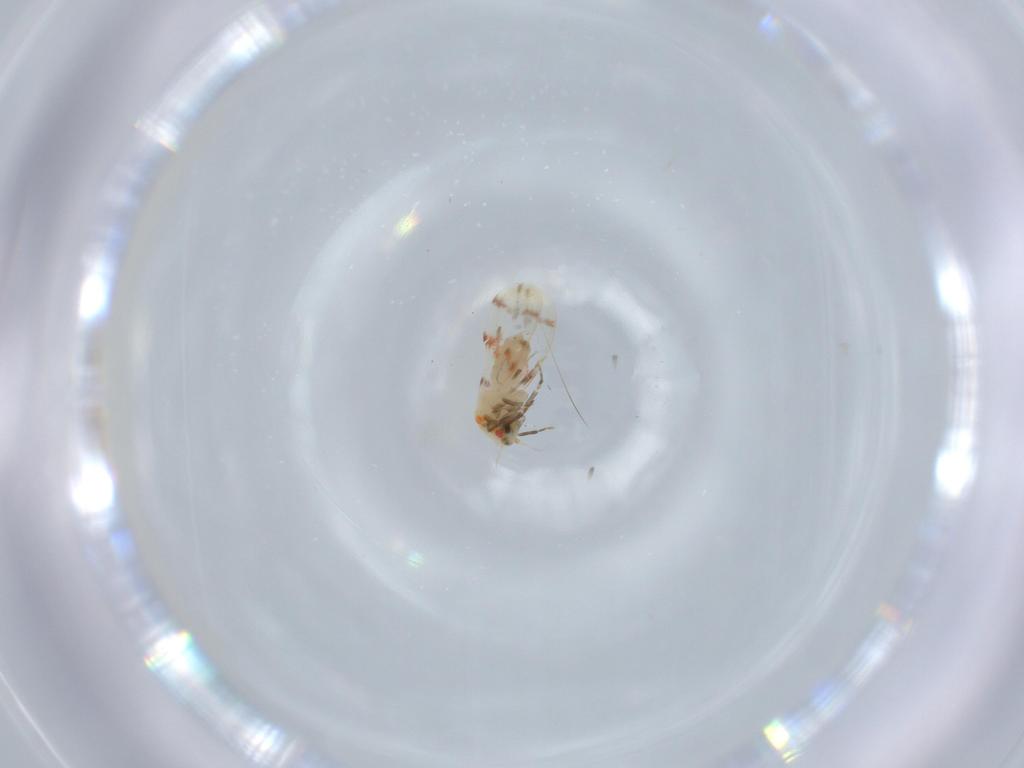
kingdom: Animalia
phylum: Arthropoda
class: Insecta
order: Hemiptera
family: Aleyrodidae
